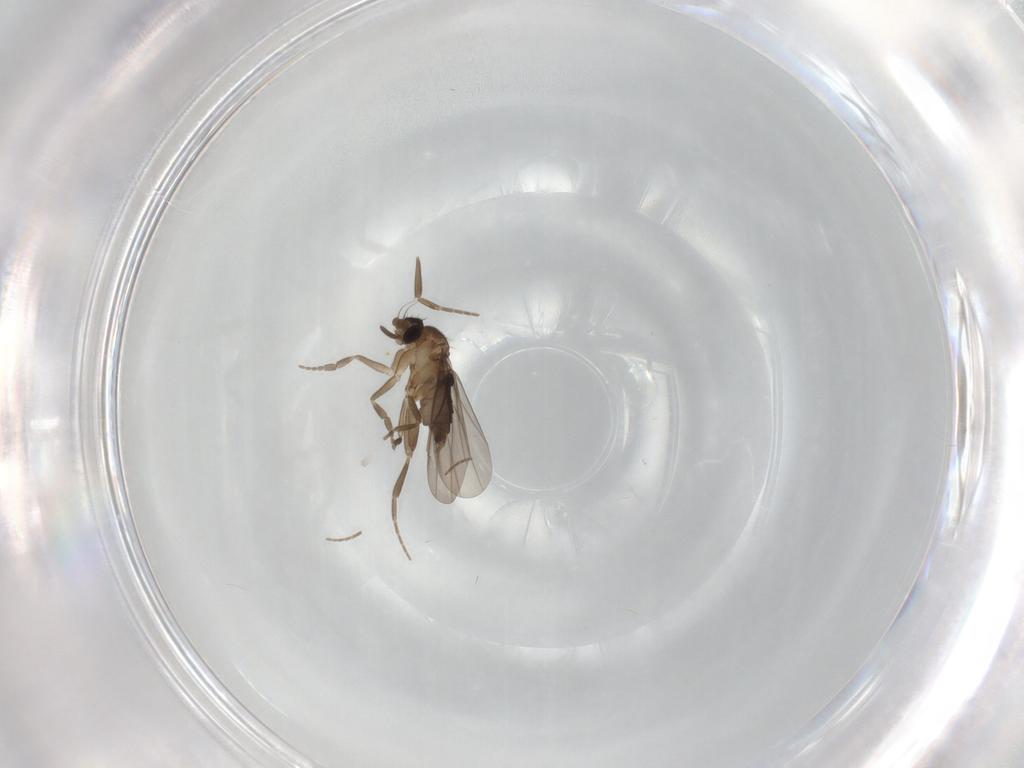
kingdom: Animalia
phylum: Arthropoda
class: Insecta
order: Diptera
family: Phoridae
